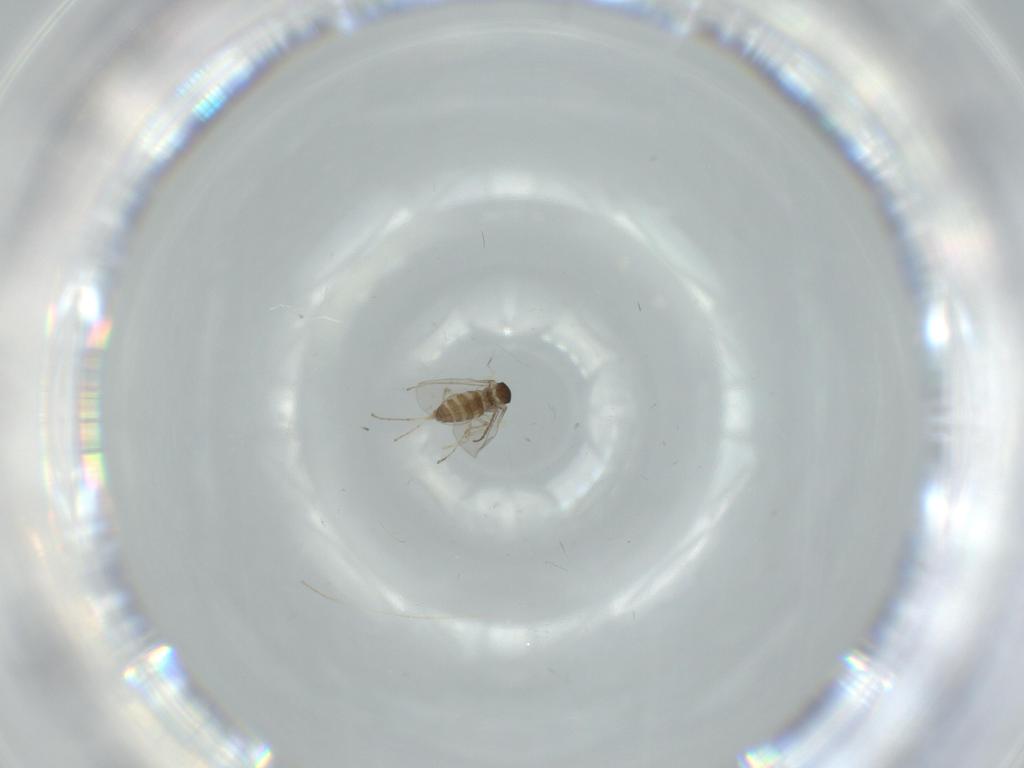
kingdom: Animalia
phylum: Arthropoda
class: Insecta
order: Diptera
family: Cecidomyiidae
